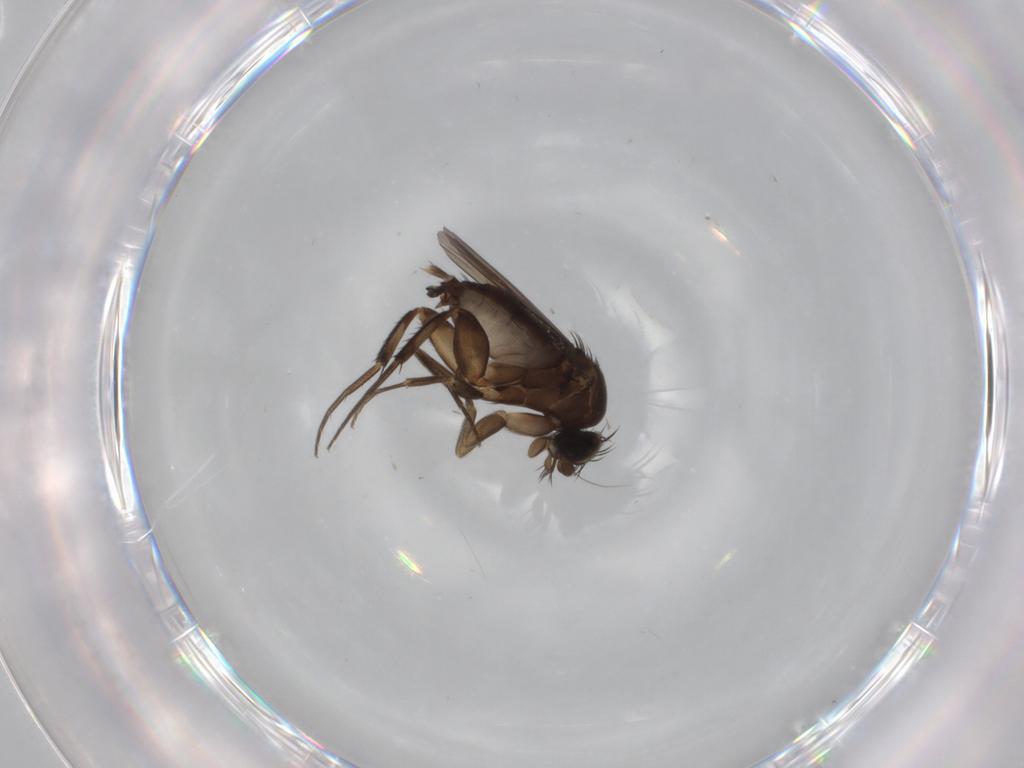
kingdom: Animalia
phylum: Arthropoda
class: Insecta
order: Diptera
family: Phoridae
